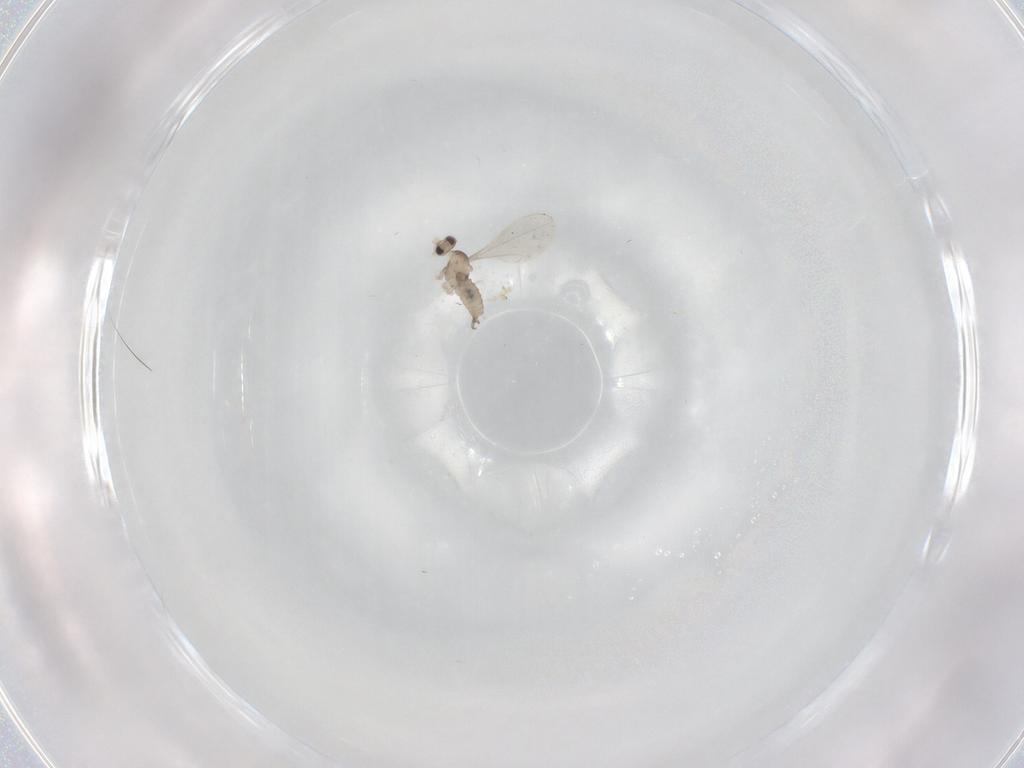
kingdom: Animalia
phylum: Arthropoda
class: Insecta
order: Diptera
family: Cecidomyiidae
